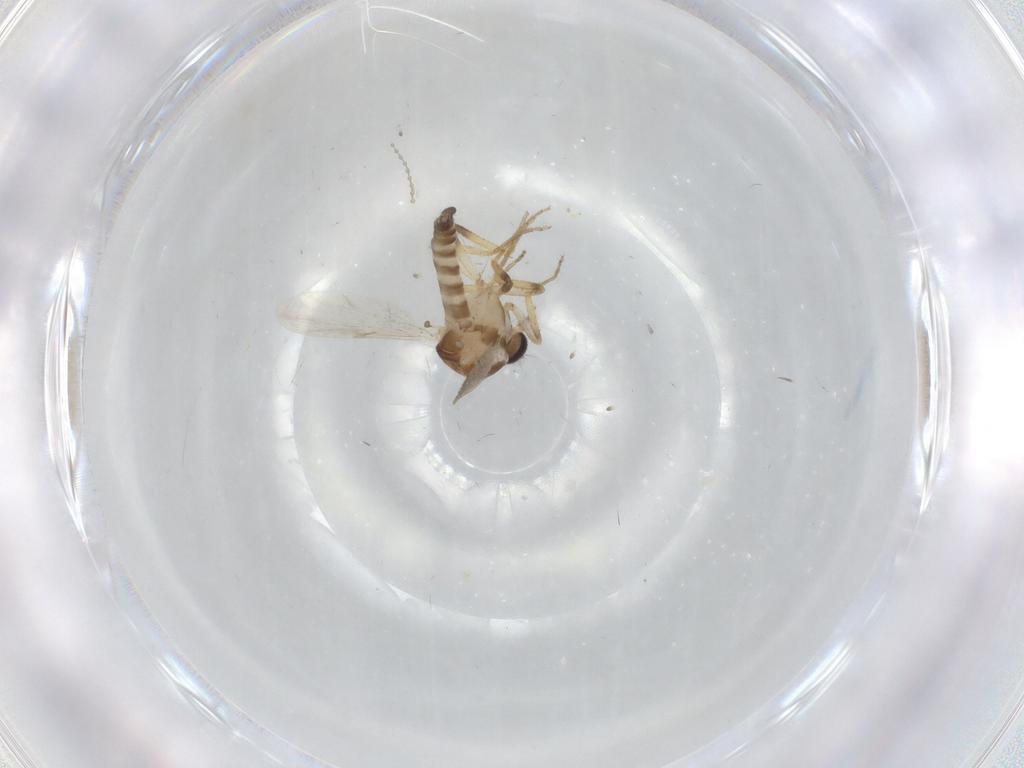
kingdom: Animalia
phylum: Arthropoda
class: Insecta
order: Diptera
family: Ceratopogonidae
